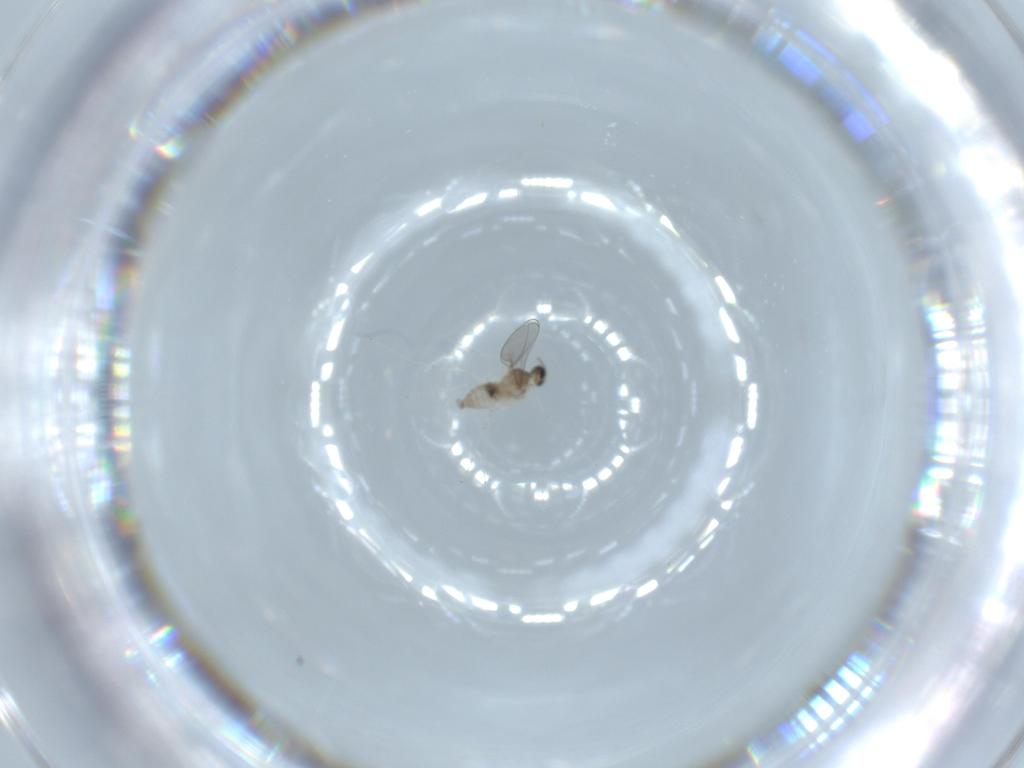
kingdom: Animalia
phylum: Arthropoda
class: Insecta
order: Diptera
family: Cecidomyiidae
